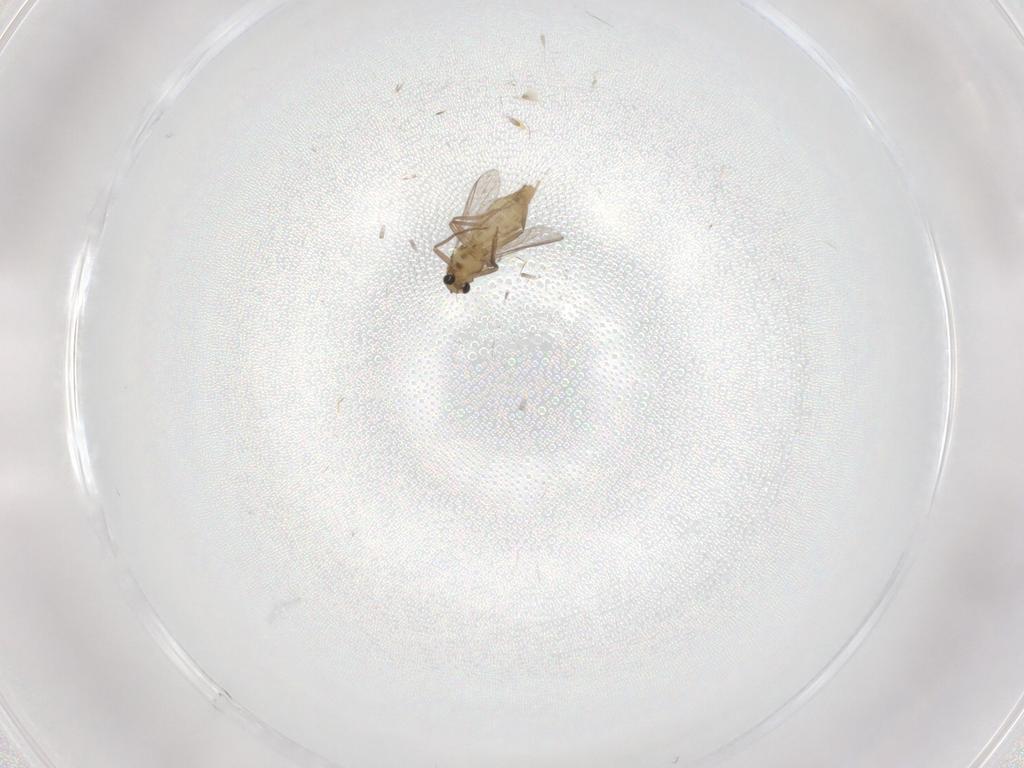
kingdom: Animalia
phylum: Arthropoda
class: Insecta
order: Diptera
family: Chironomidae
